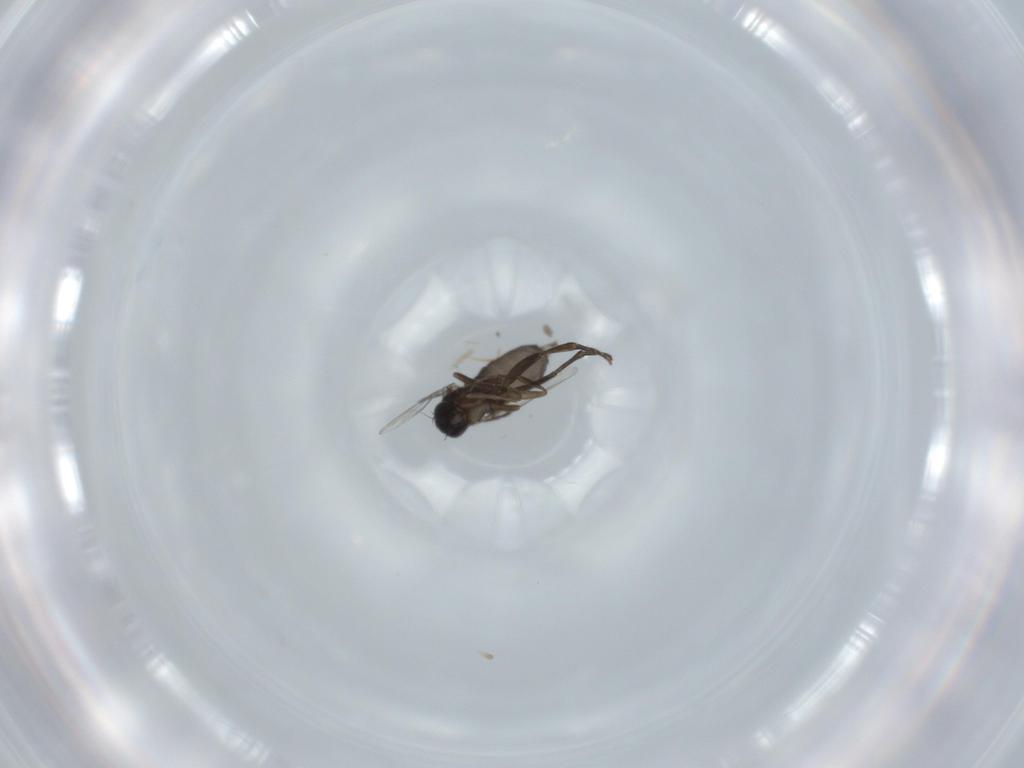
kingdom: Animalia
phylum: Arthropoda
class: Insecta
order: Diptera
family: Phoridae
